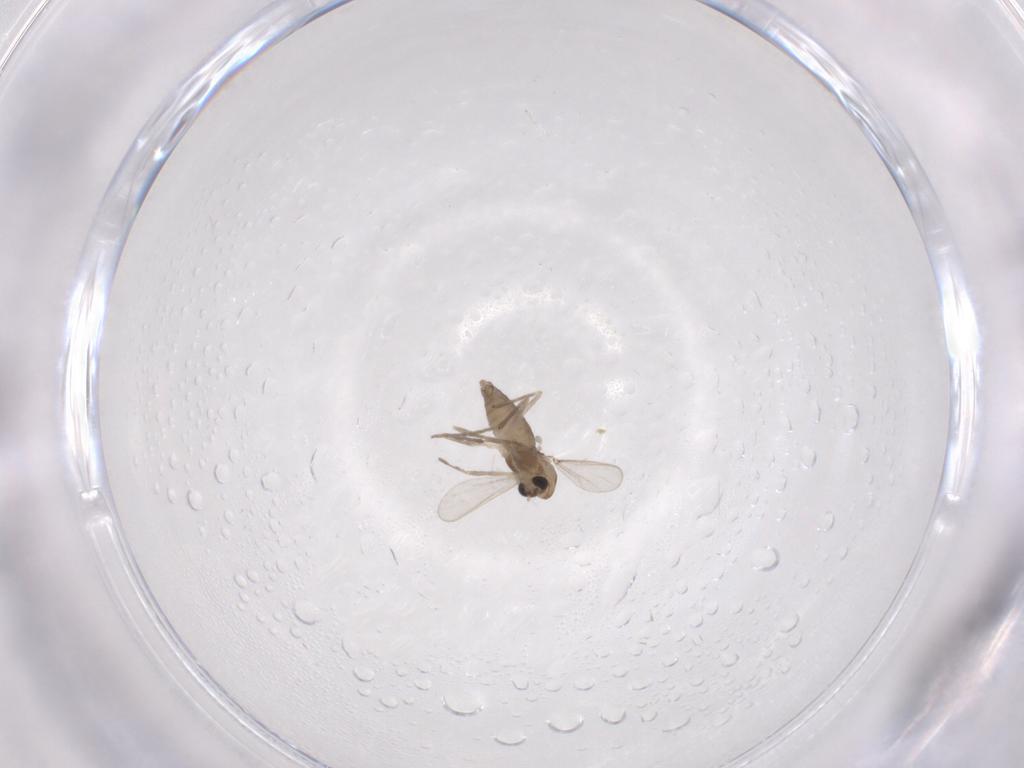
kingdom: Animalia
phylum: Arthropoda
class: Insecta
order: Diptera
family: Chironomidae
